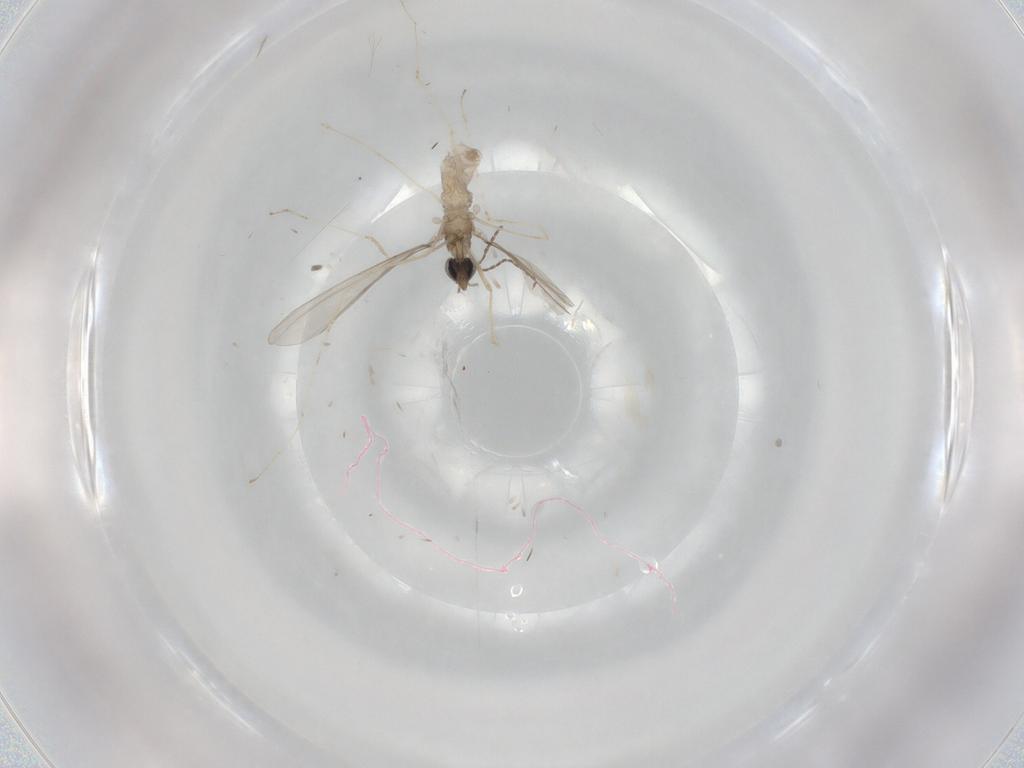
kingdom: Animalia
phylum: Arthropoda
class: Insecta
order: Diptera
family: Cecidomyiidae
